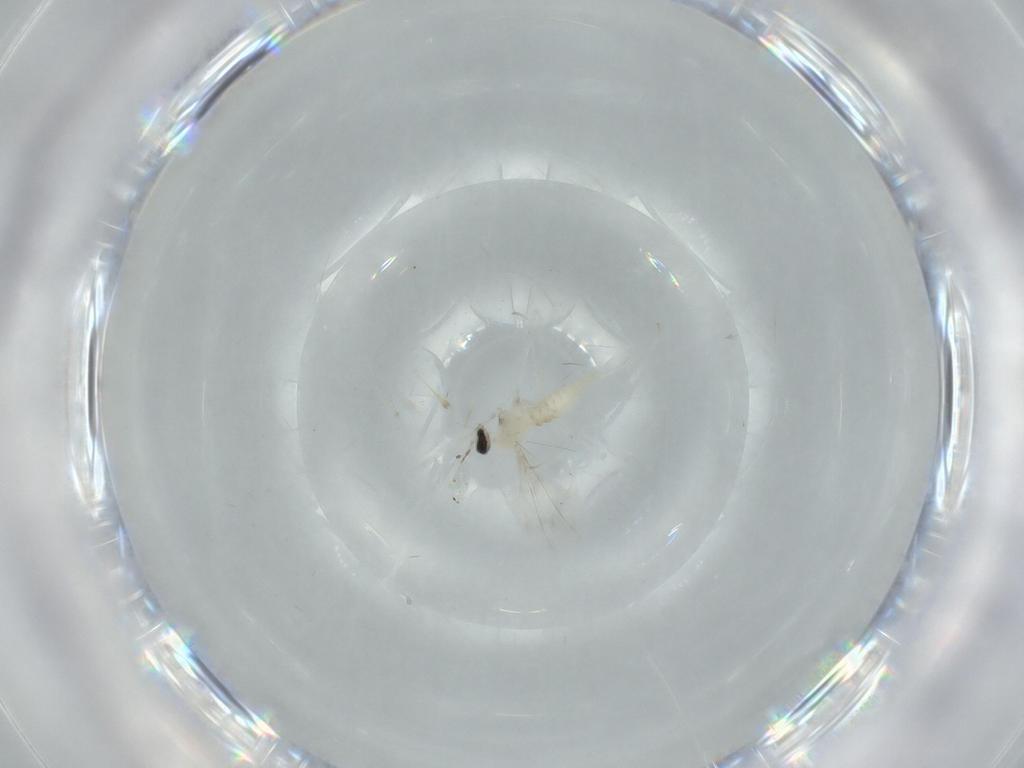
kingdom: Animalia
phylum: Arthropoda
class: Insecta
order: Diptera
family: Cecidomyiidae
